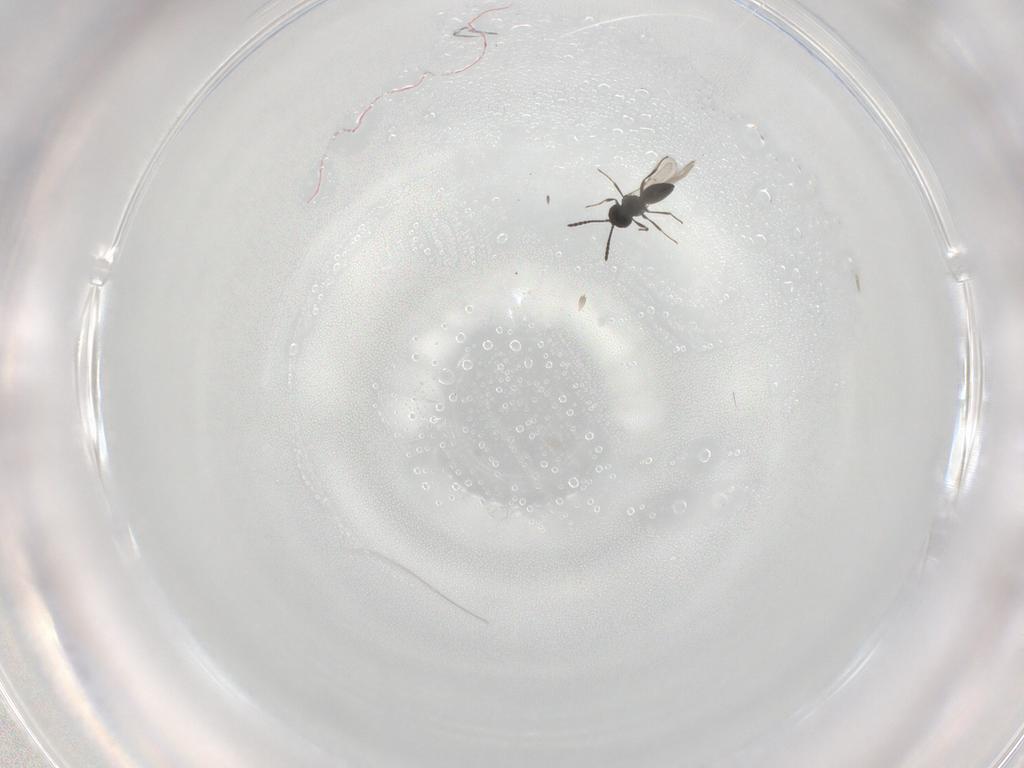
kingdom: Animalia
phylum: Arthropoda
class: Insecta
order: Hymenoptera
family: Scelionidae
